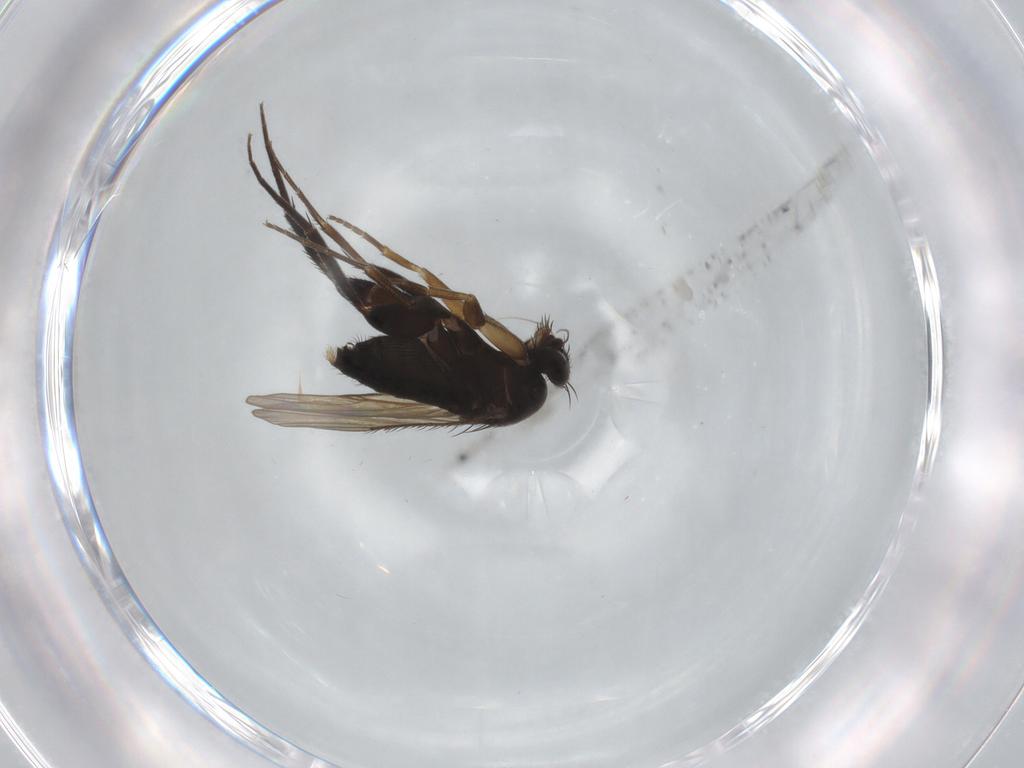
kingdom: Animalia
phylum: Arthropoda
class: Insecta
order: Diptera
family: Phoridae
